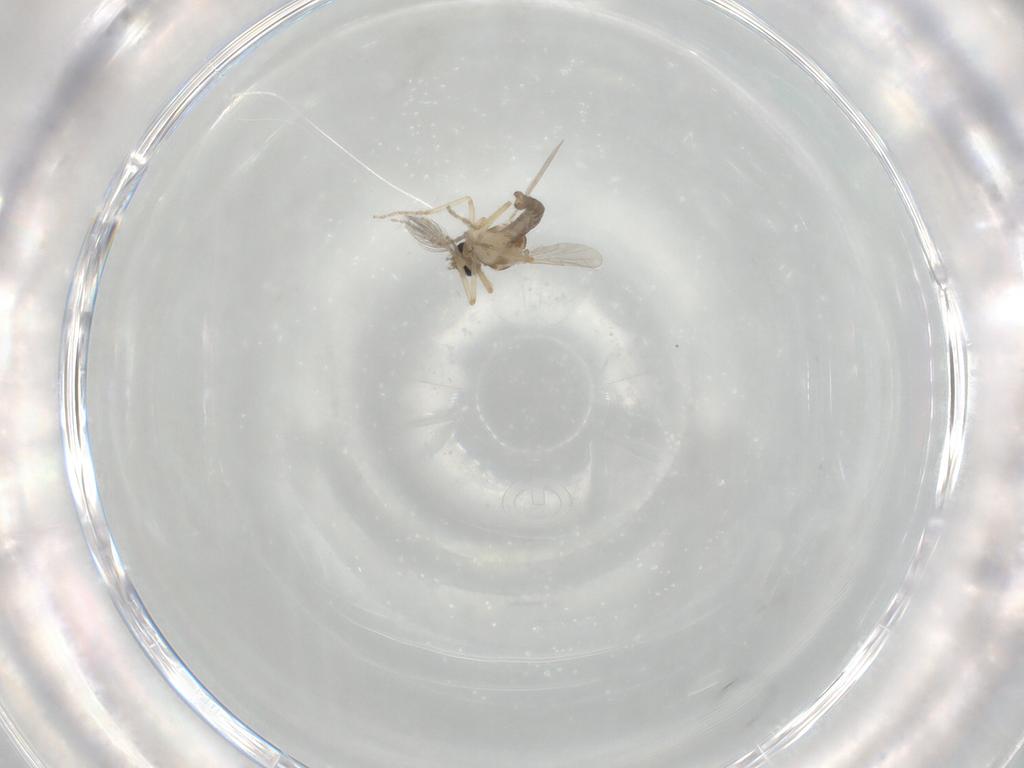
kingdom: Animalia
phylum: Arthropoda
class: Insecta
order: Diptera
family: Ceratopogonidae
